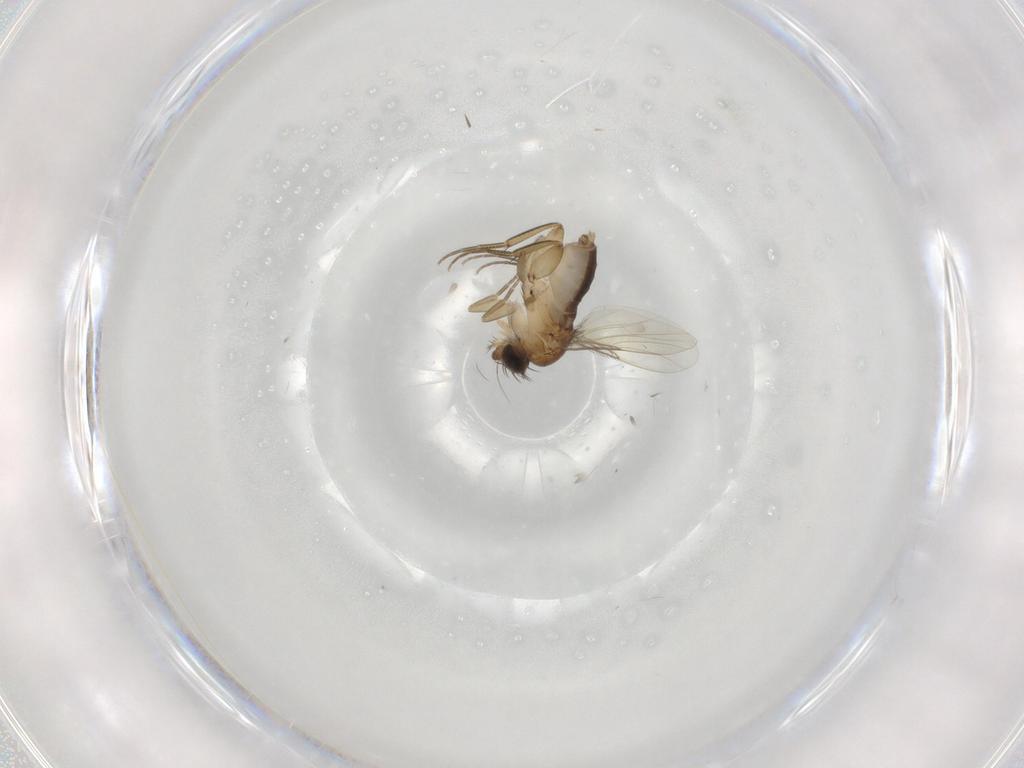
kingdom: Animalia
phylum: Arthropoda
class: Insecta
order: Diptera
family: Phoridae
